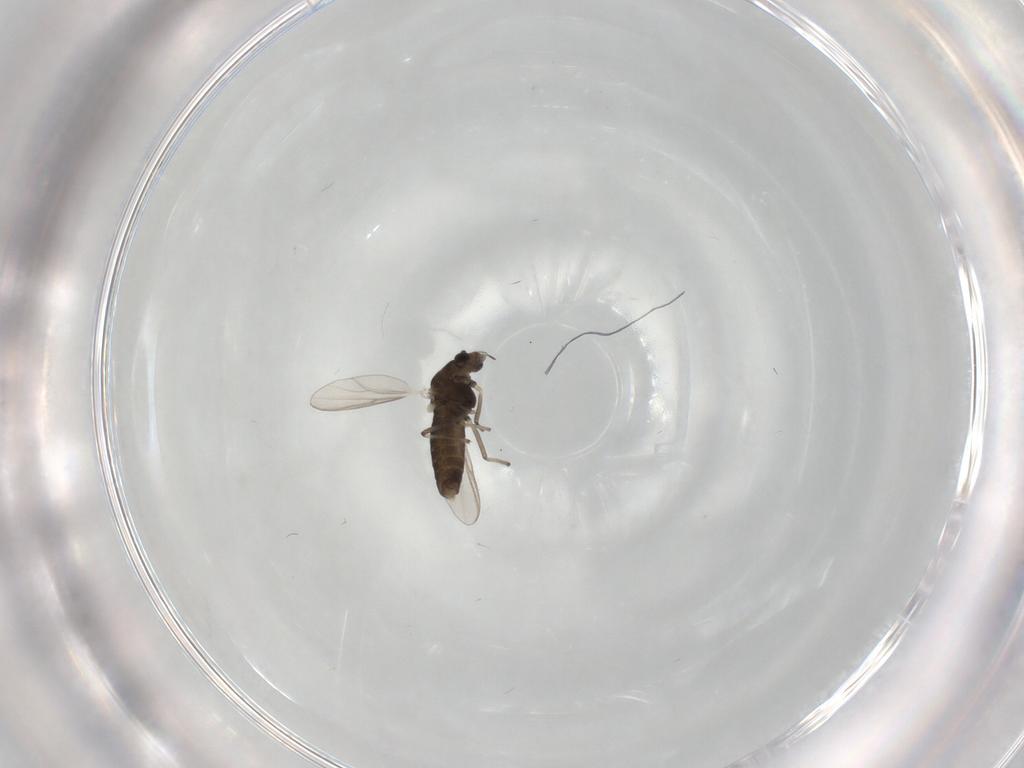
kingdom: Animalia
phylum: Arthropoda
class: Insecta
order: Diptera
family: Chironomidae
